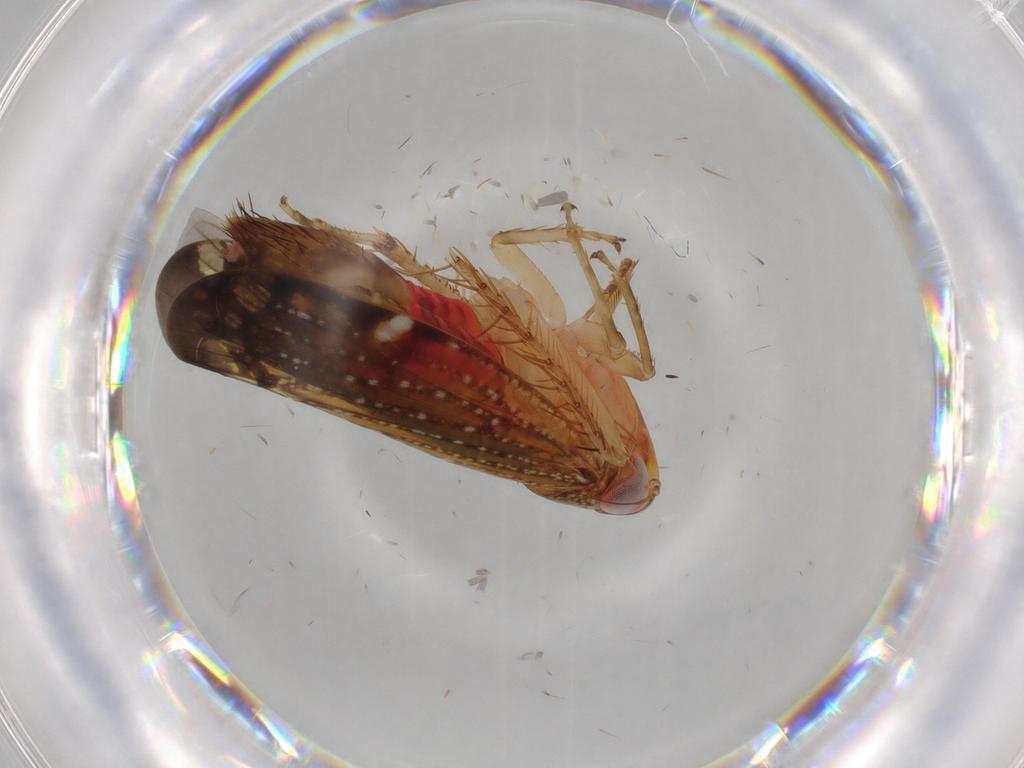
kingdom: Animalia
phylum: Arthropoda
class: Insecta
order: Hemiptera
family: Cicadellidae
